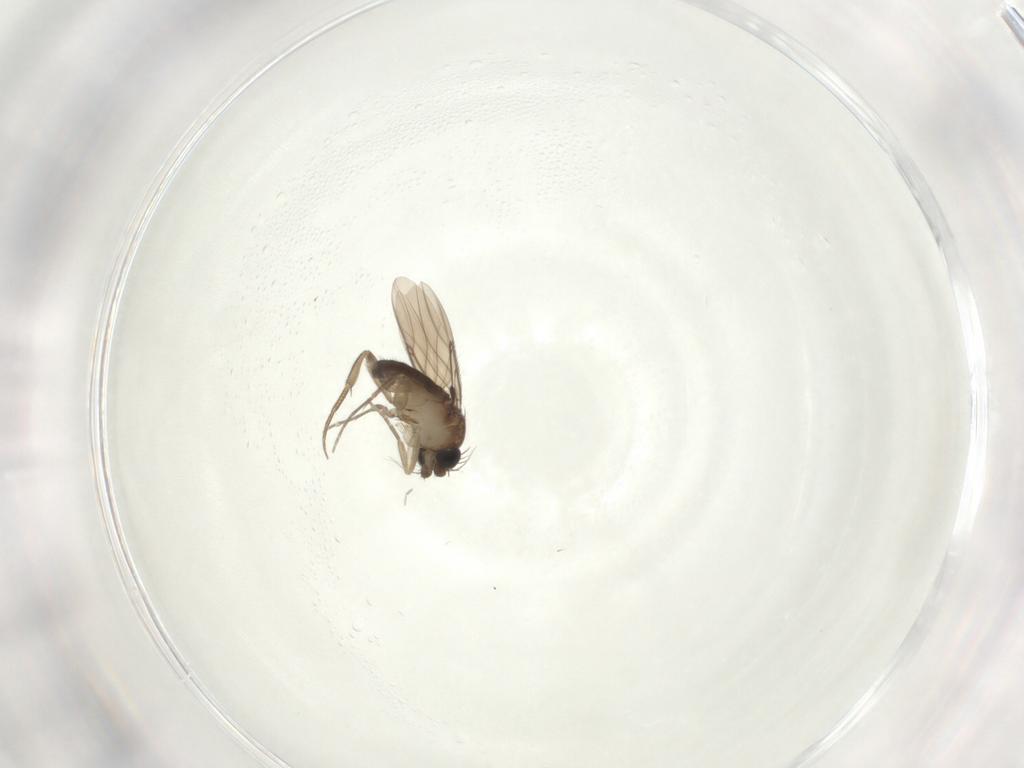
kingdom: Animalia
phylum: Arthropoda
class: Insecta
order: Diptera
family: Phoridae
